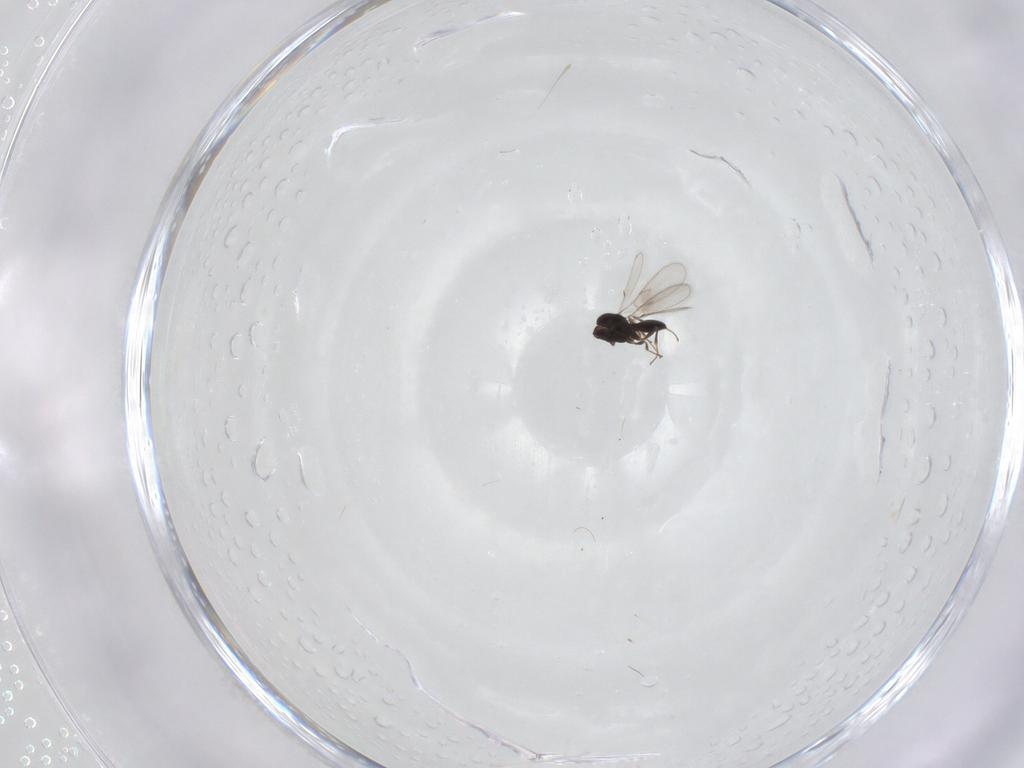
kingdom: Animalia
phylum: Arthropoda
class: Insecta
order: Hymenoptera
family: Scelionidae
